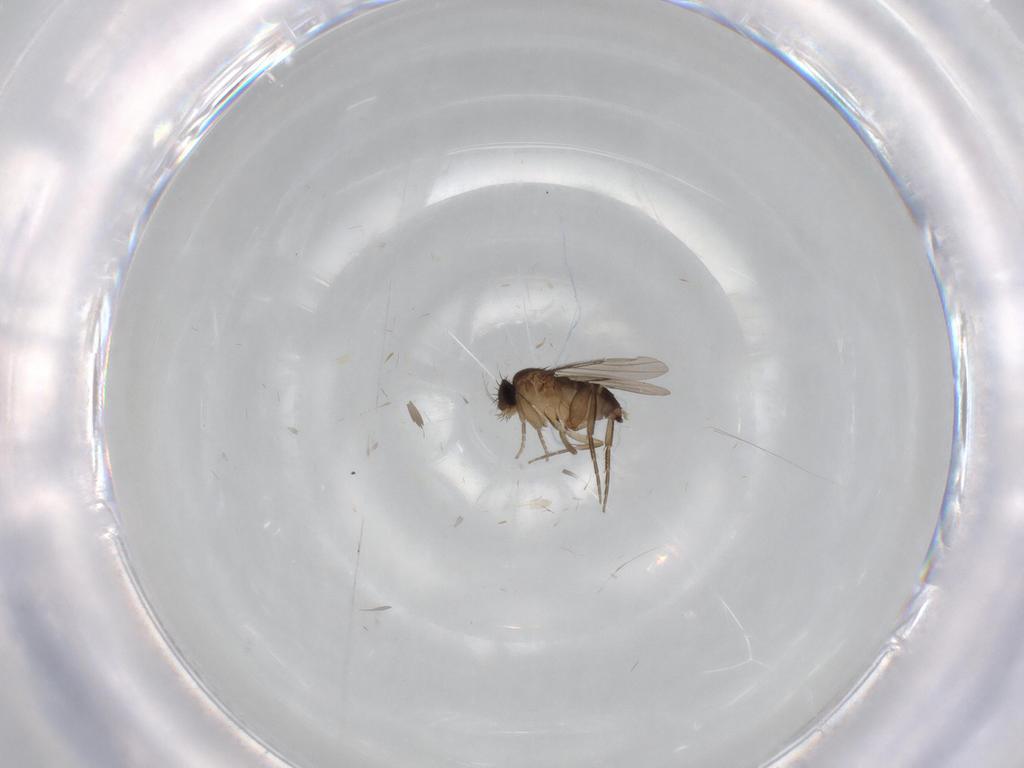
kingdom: Animalia
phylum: Arthropoda
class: Insecta
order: Diptera
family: Phoridae
